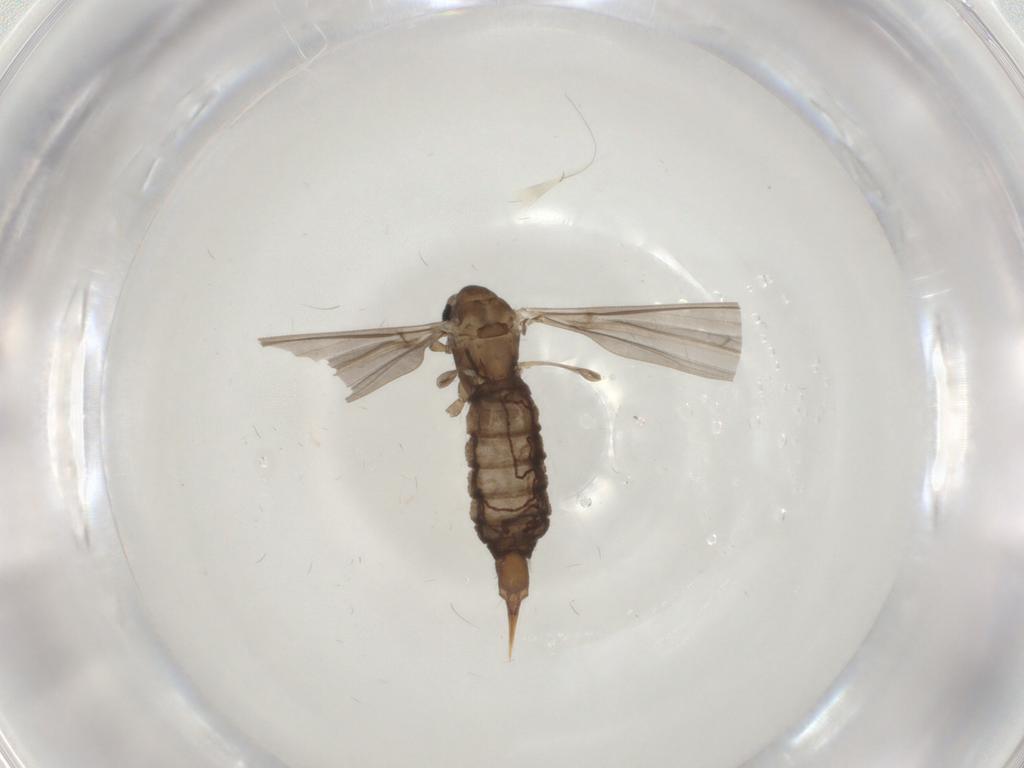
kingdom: Animalia
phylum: Arthropoda
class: Insecta
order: Diptera
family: Limoniidae
